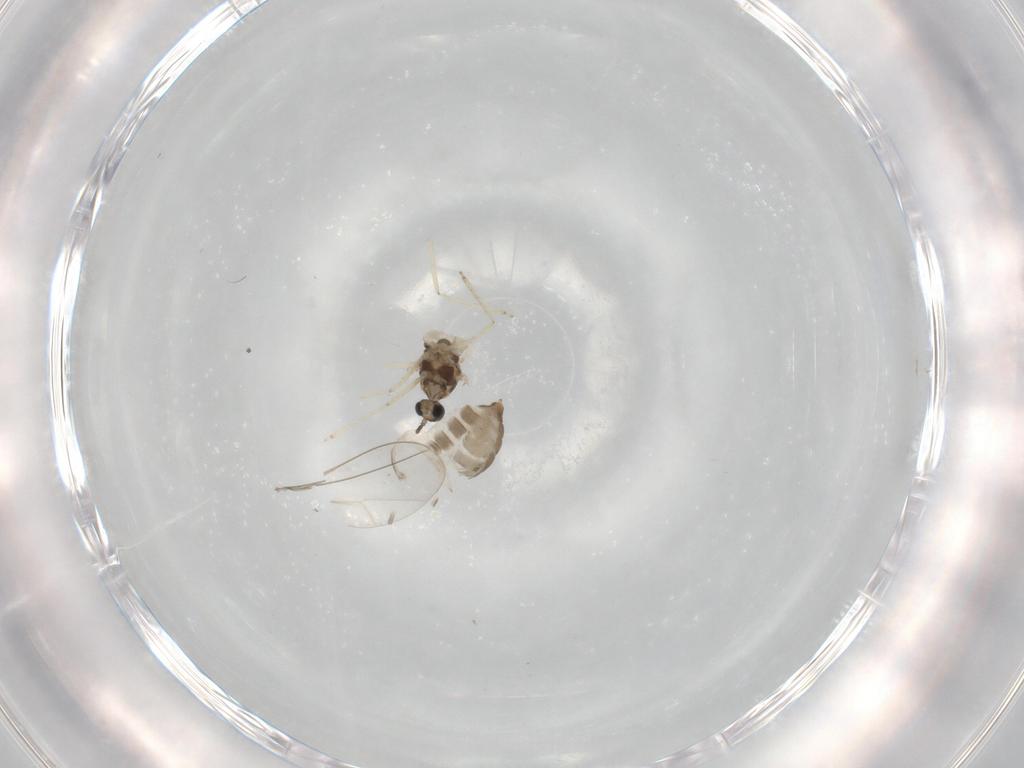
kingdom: Animalia
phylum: Arthropoda
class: Insecta
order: Diptera
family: Cecidomyiidae
